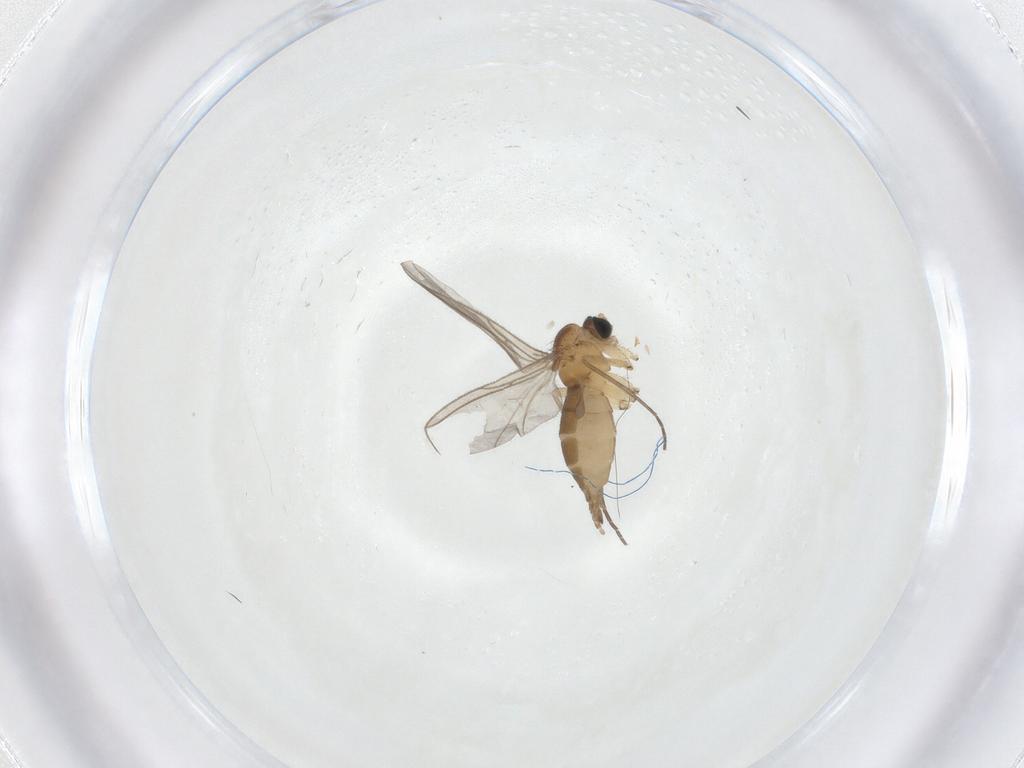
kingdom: Animalia
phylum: Arthropoda
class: Insecta
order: Diptera
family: Sciaridae
